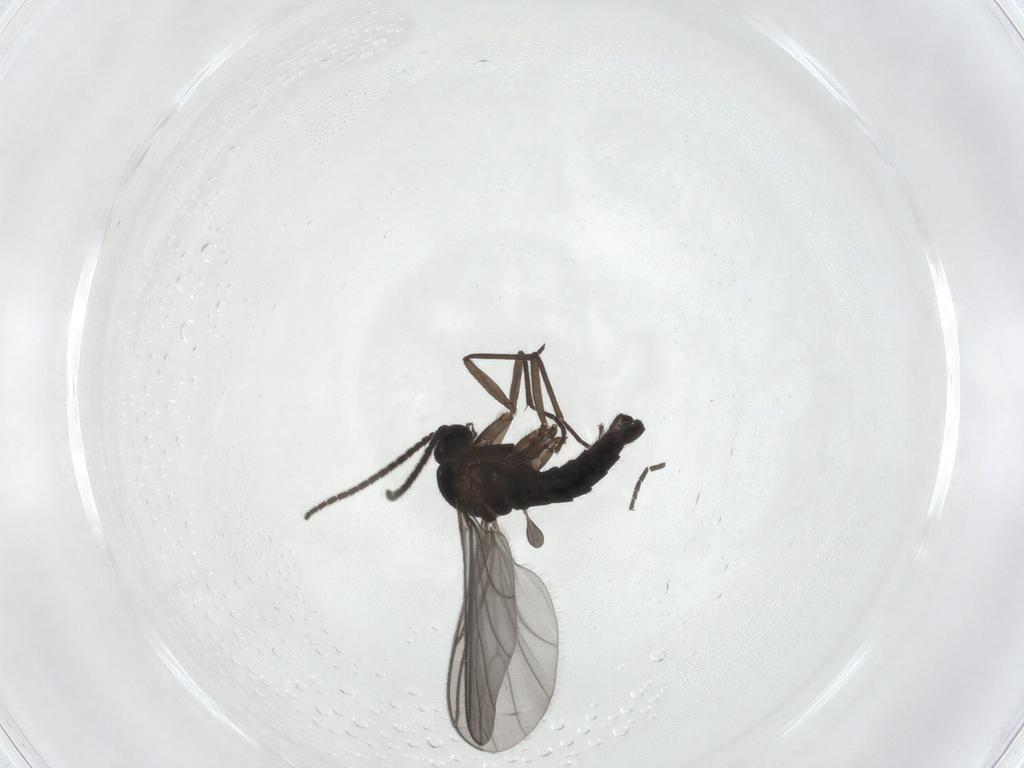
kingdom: Animalia
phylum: Arthropoda
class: Insecta
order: Diptera
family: Sciaridae
